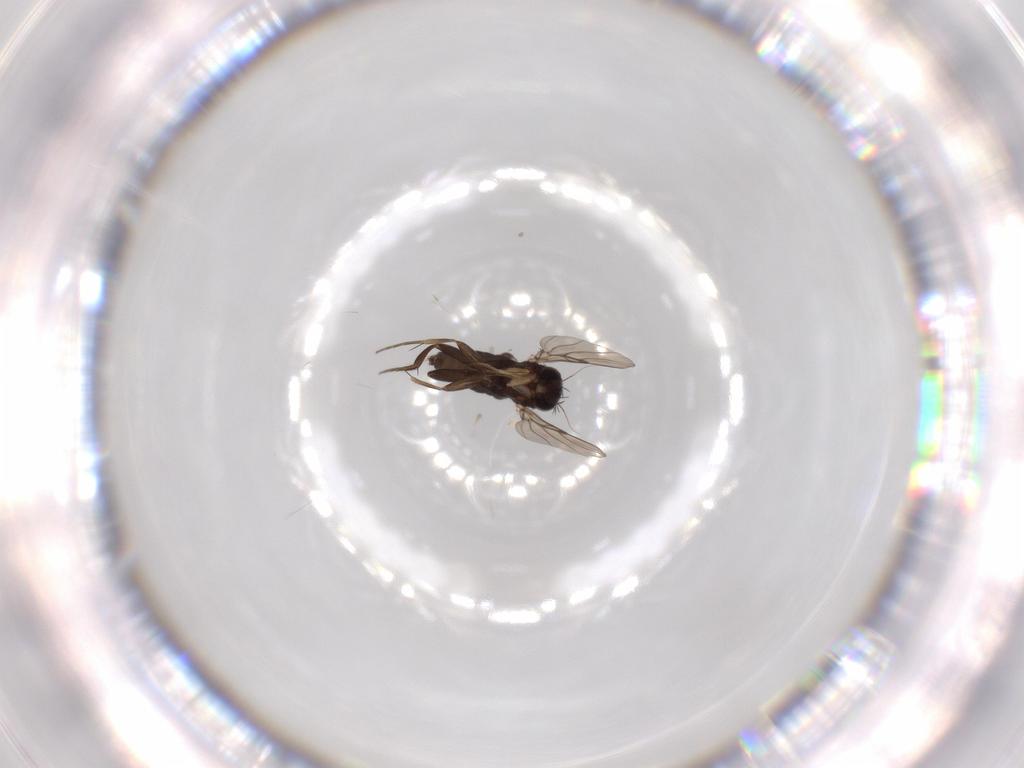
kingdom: Animalia
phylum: Arthropoda
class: Insecta
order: Diptera
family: Phoridae
